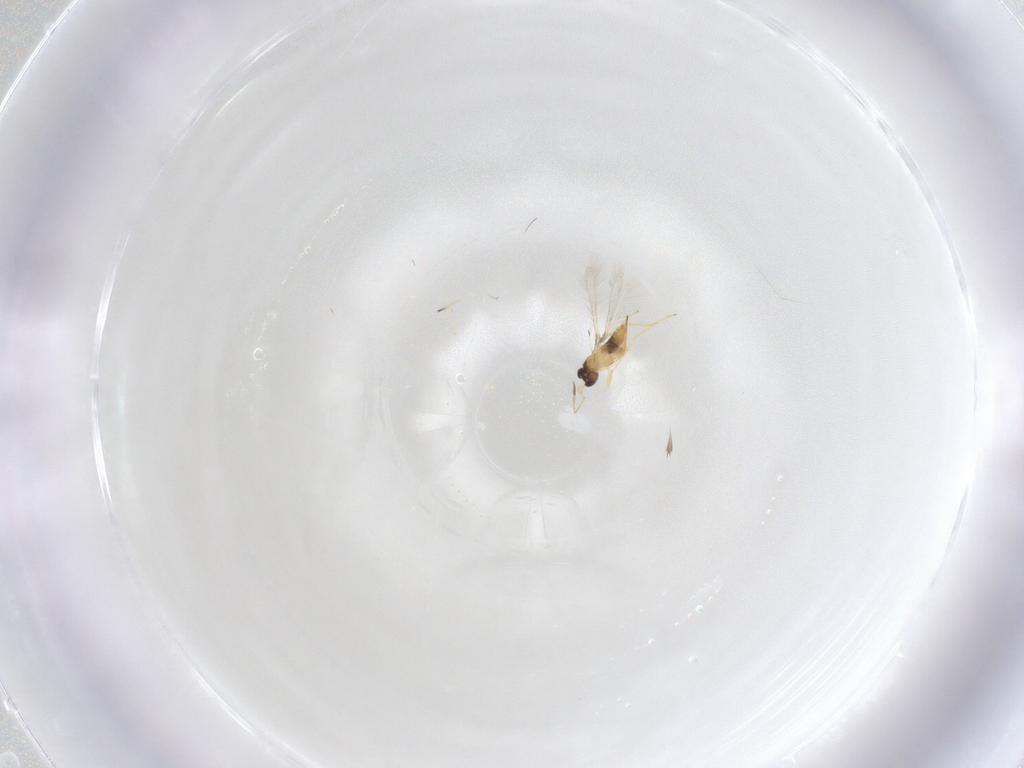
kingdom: Animalia
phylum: Arthropoda
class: Insecta
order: Hymenoptera
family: Mymaridae
